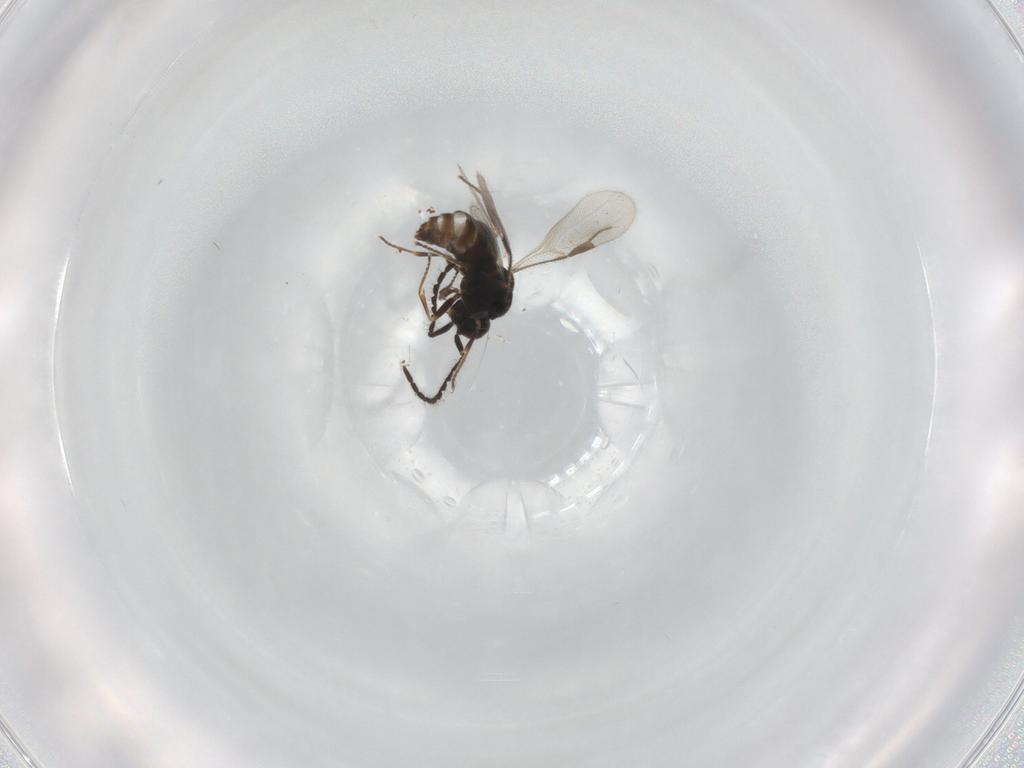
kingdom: Animalia
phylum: Arthropoda
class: Insecta
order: Hymenoptera
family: Megaspilidae
